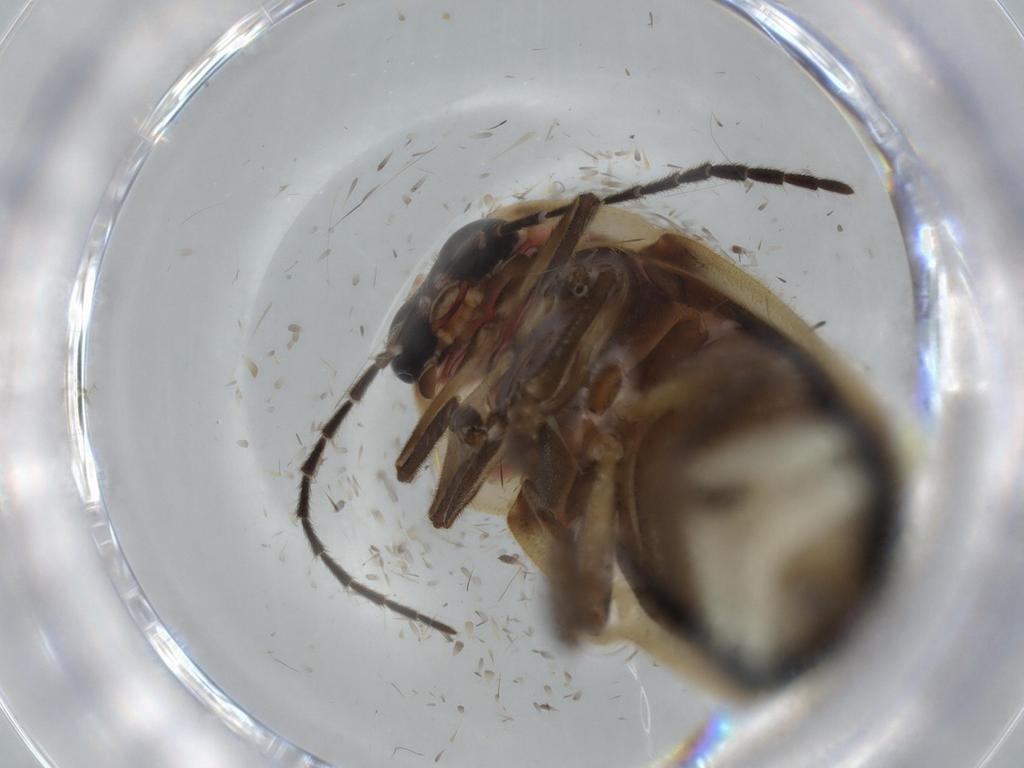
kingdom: Animalia
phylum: Arthropoda
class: Insecta
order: Coleoptera
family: Lampyridae
